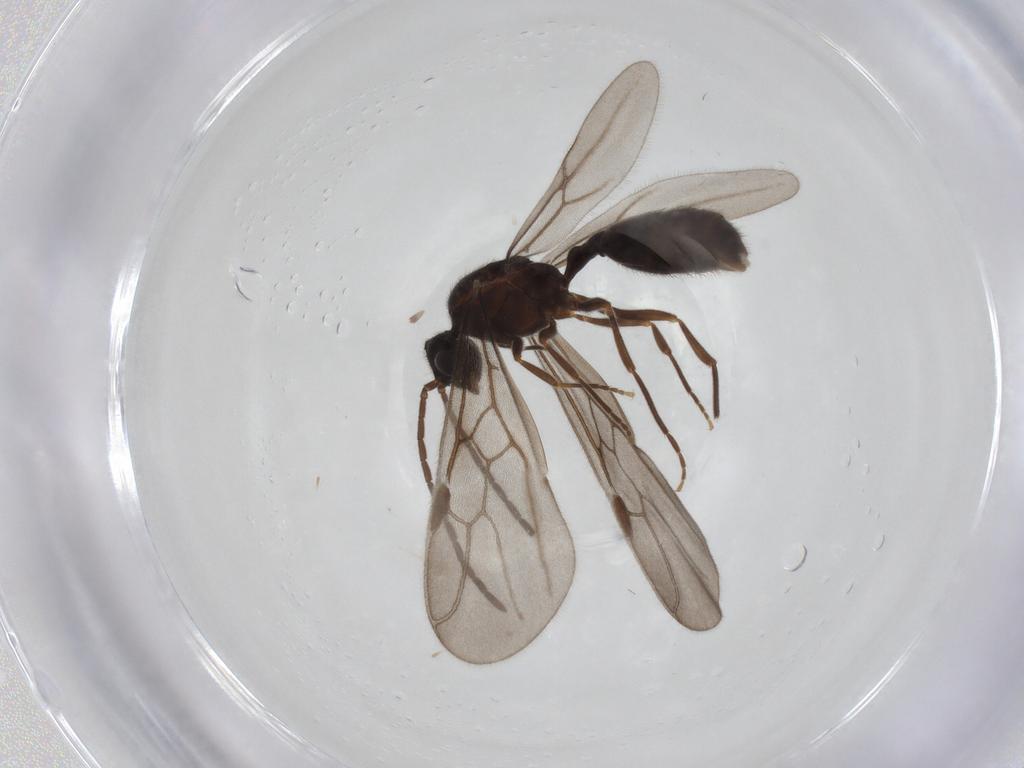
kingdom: Animalia
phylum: Arthropoda
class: Insecta
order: Hymenoptera
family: Formicidae
